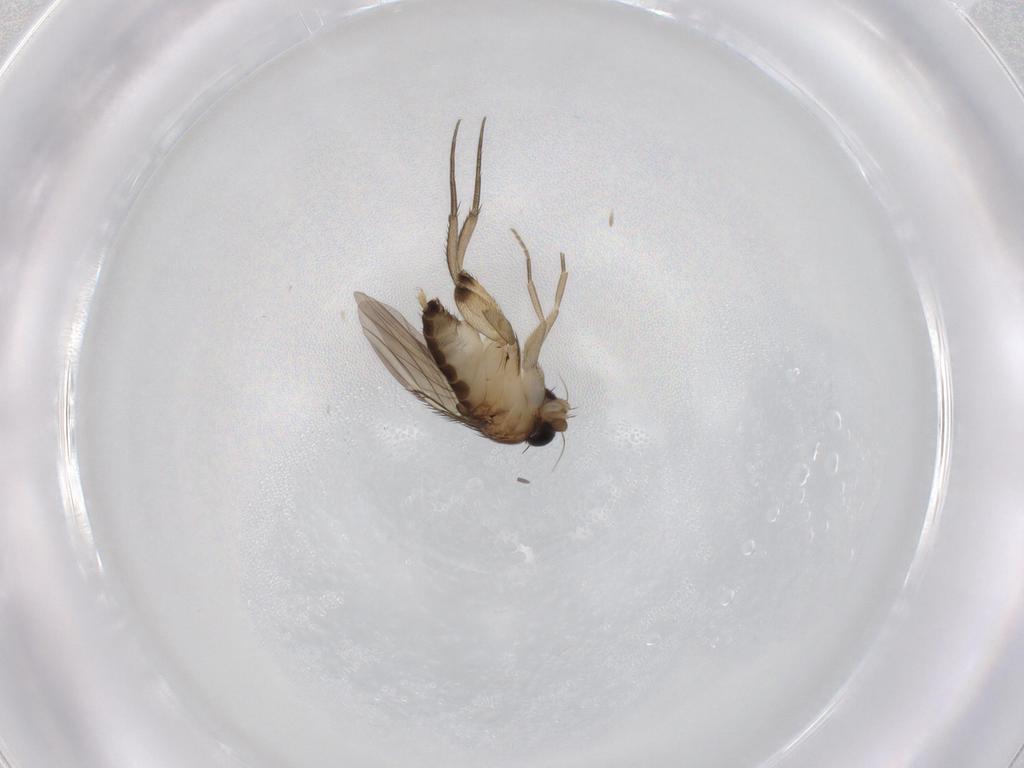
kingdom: Animalia
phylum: Arthropoda
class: Insecta
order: Diptera
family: Phoridae
